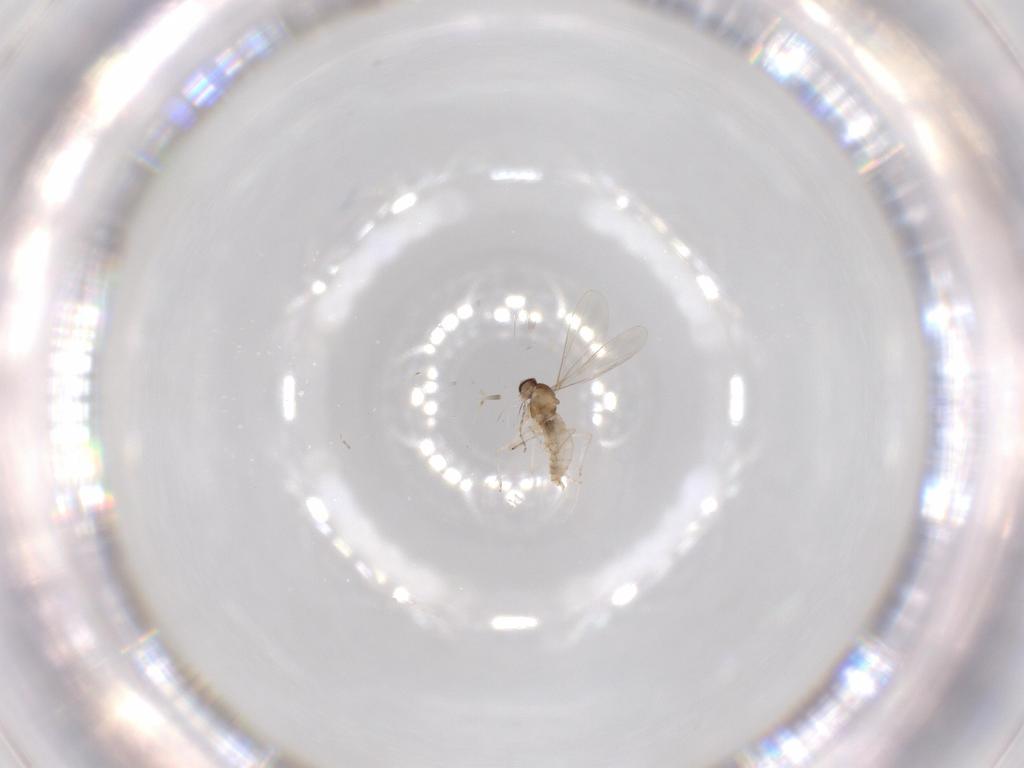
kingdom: Animalia
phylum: Arthropoda
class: Insecta
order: Diptera
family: Cecidomyiidae
